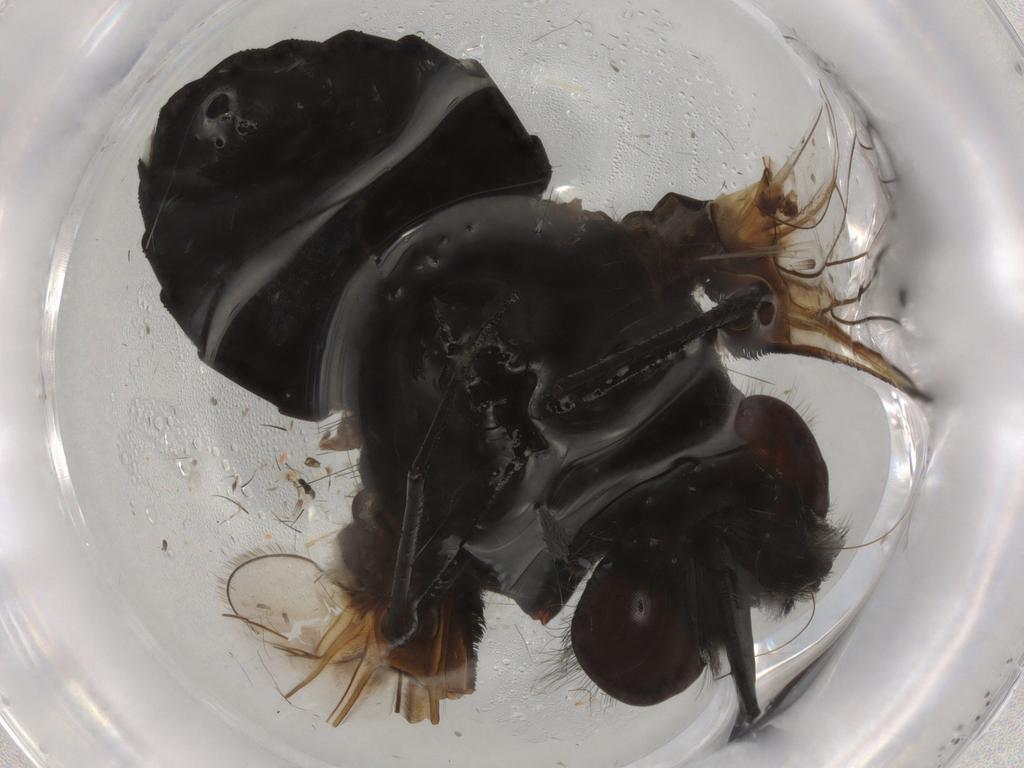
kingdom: Animalia
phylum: Arthropoda
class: Insecta
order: Diptera
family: Bombyliidae
